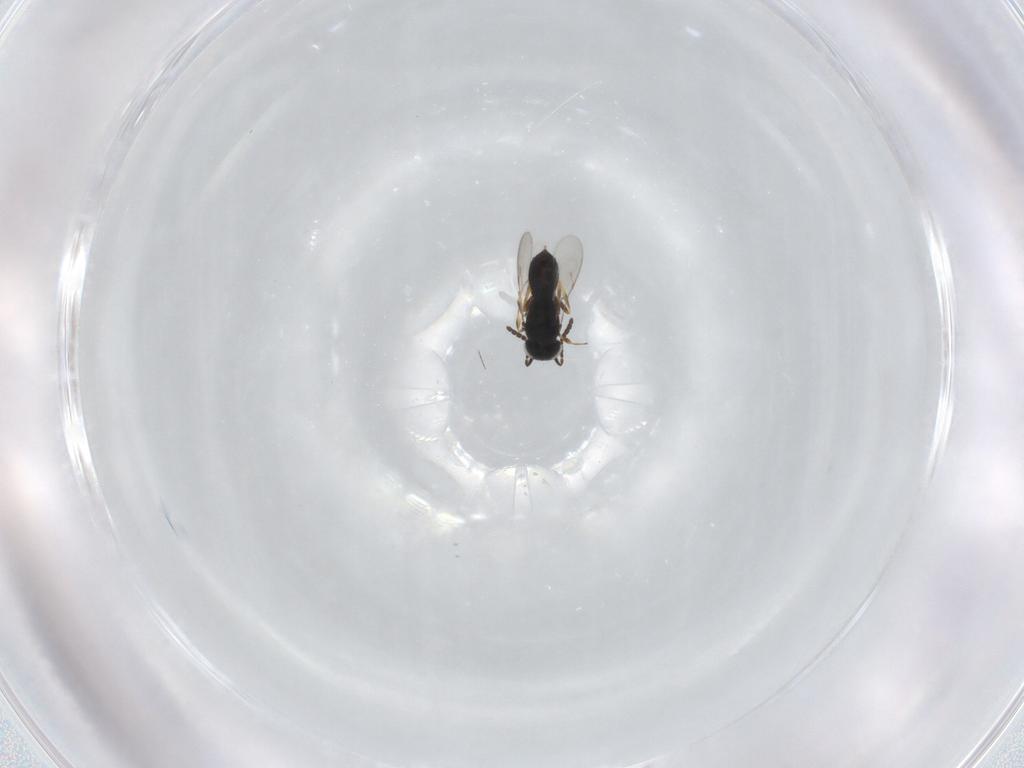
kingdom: Animalia
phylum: Arthropoda
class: Insecta
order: Hymenoptera
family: Scelionidae
